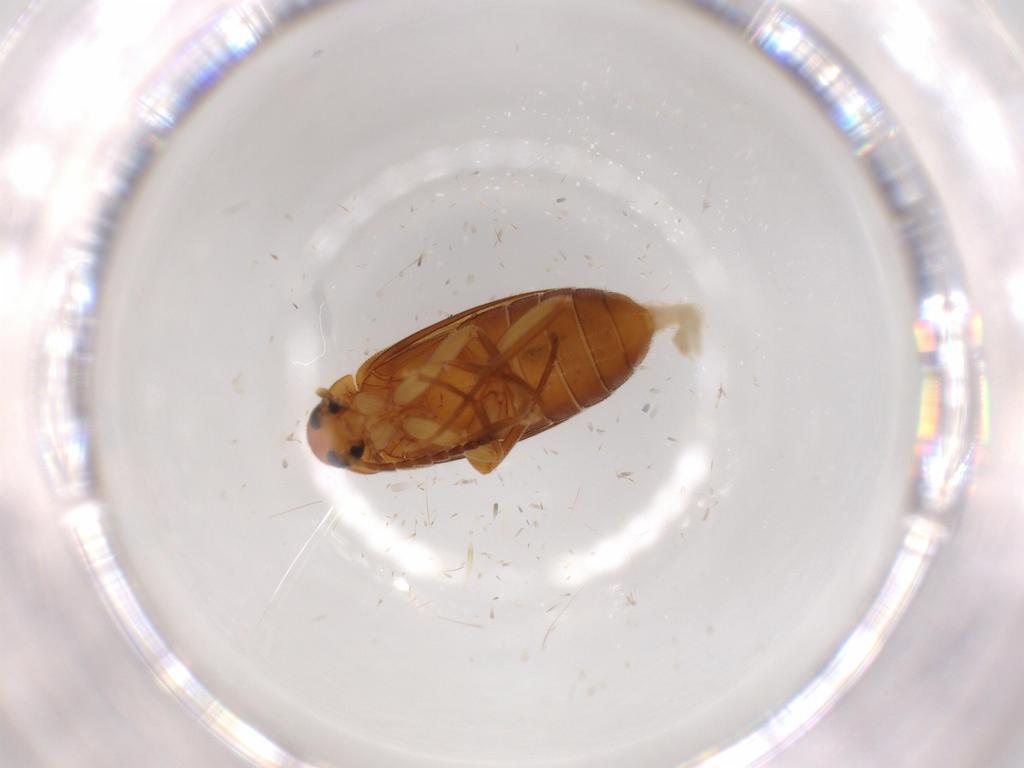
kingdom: Animalia
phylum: Arthropoda
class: Insecta
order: Coleoptera
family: Scraptiidae
